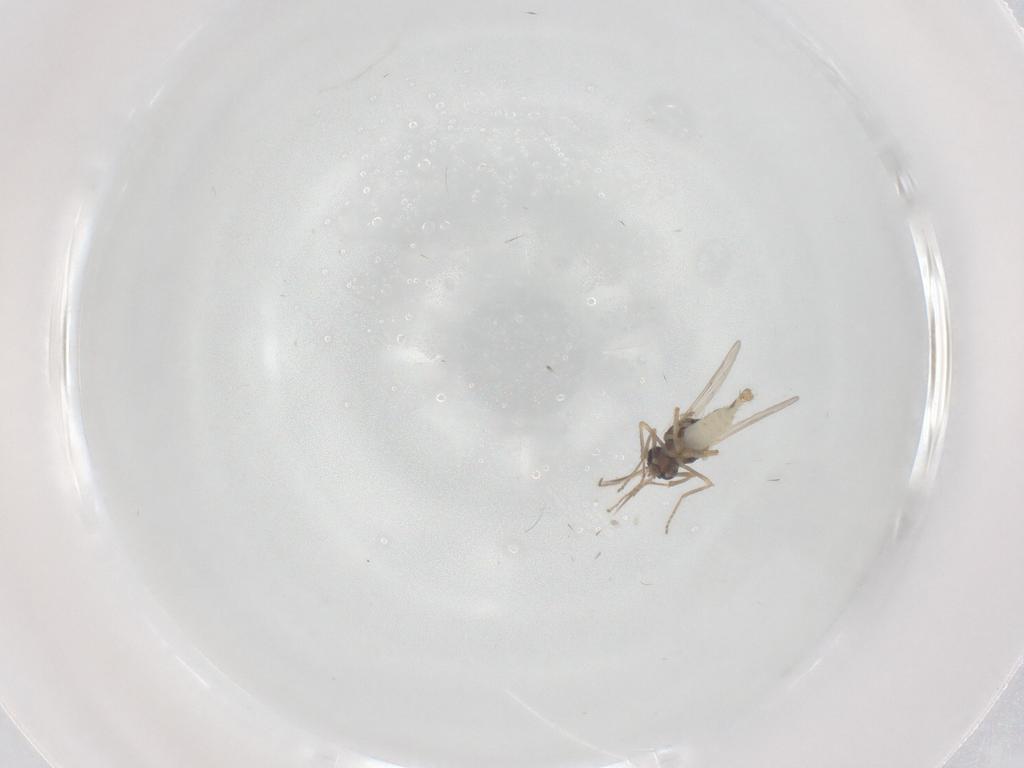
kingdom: Animalia
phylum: Arthropoda
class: Insecta
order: Diptera
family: Ceratopogonidae
